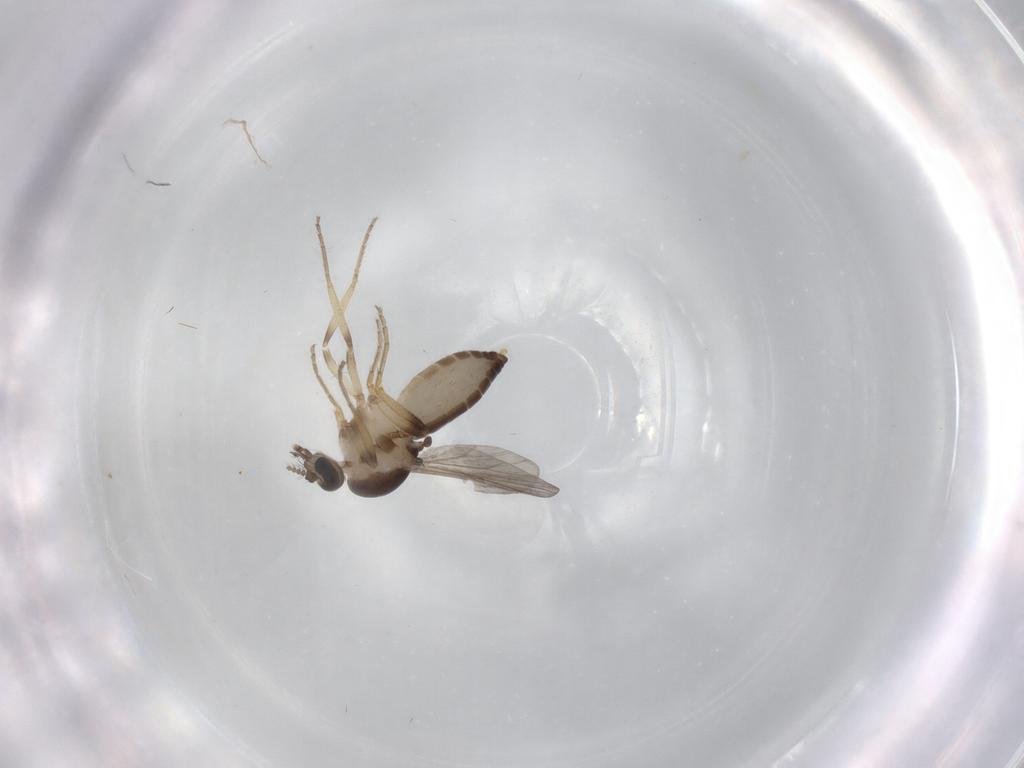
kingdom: Animalia
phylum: Arthropoda
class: Insecta
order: Diptera
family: Ceratopogonidae
